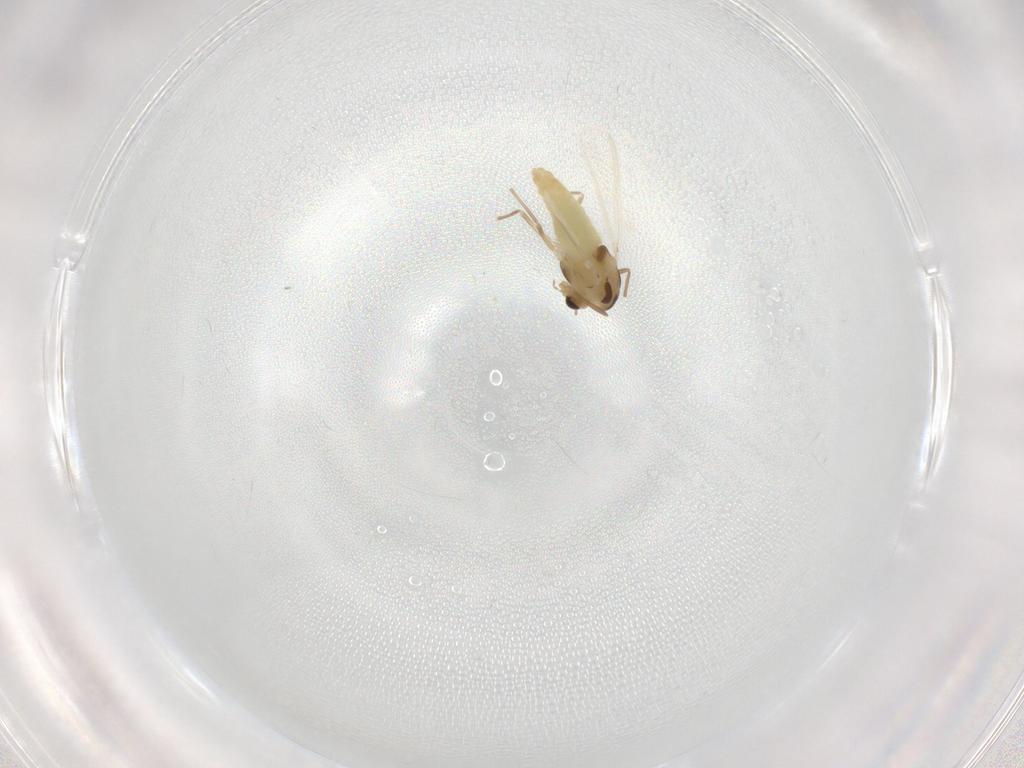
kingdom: Animalia
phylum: Arthropoda
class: Insecta
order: Diptera
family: Chironomidae
